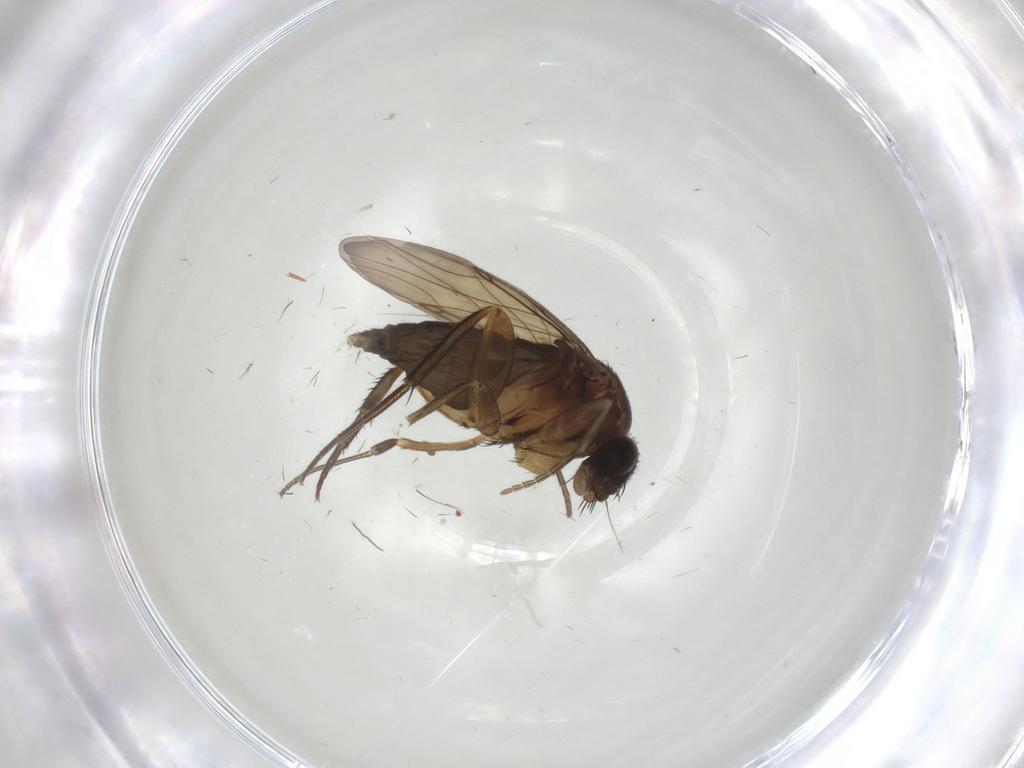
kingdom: Animalia
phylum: Arthropoda
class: Insecta
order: Diptera
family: Phoridae
